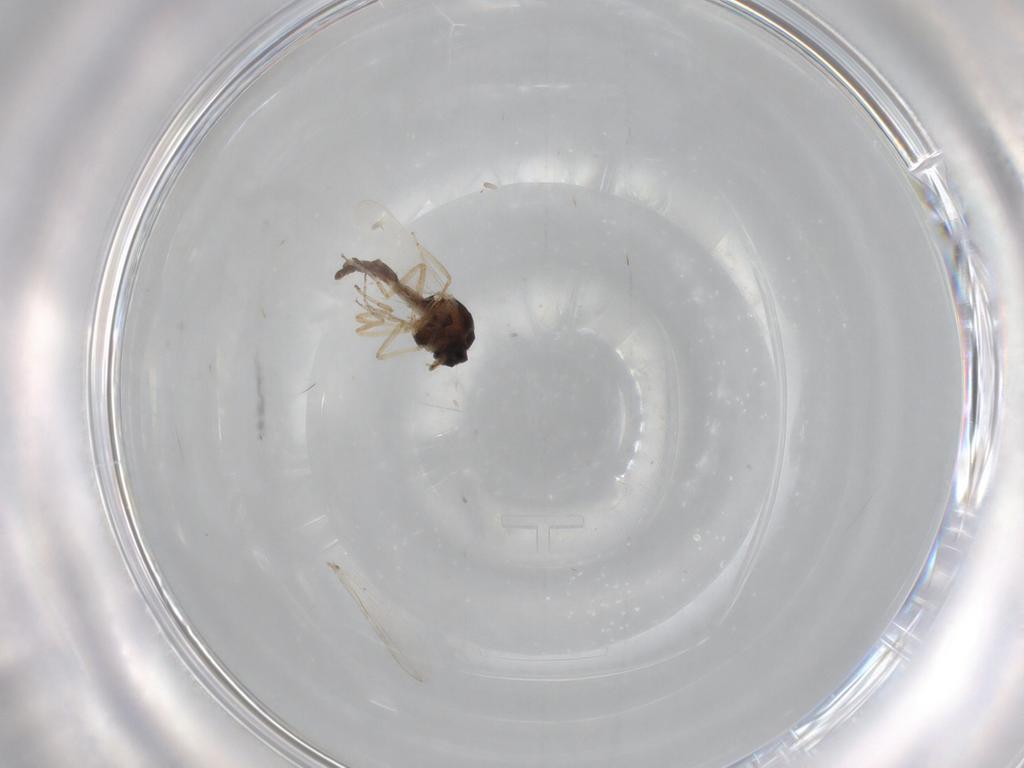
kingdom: Animalia
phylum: Arthropoda
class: Insecta
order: Diptera
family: Ceratopogonidae
